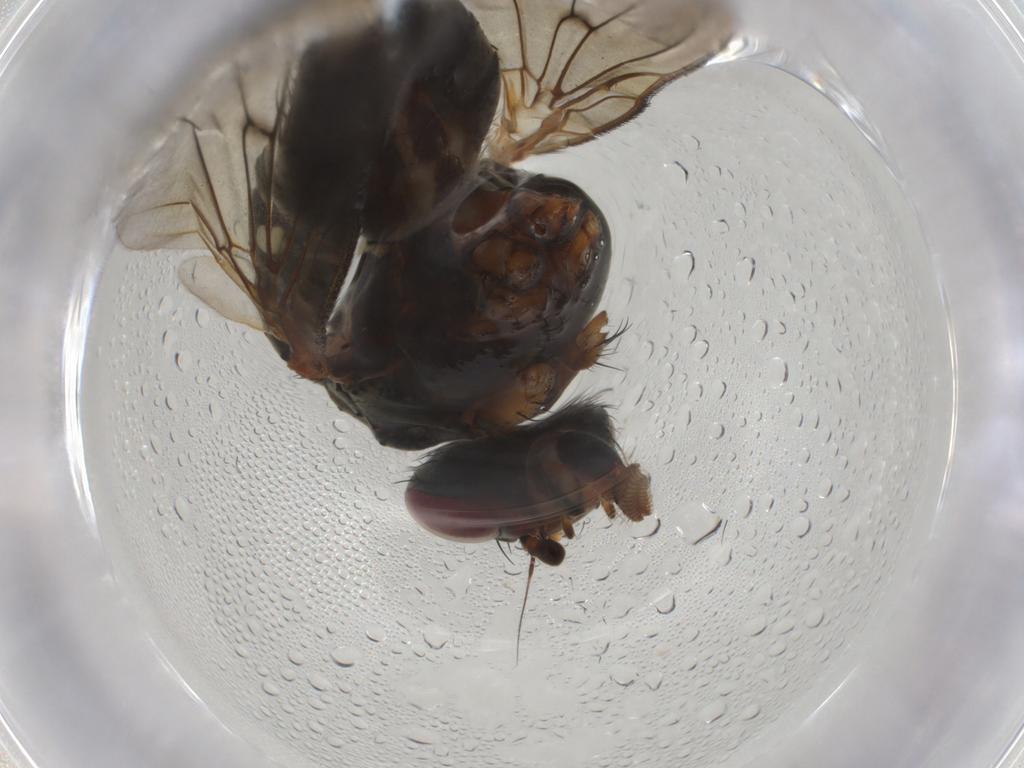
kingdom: Animalia
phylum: Arthropoda
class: Insecta
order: Diptera
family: Anthomyiidae
